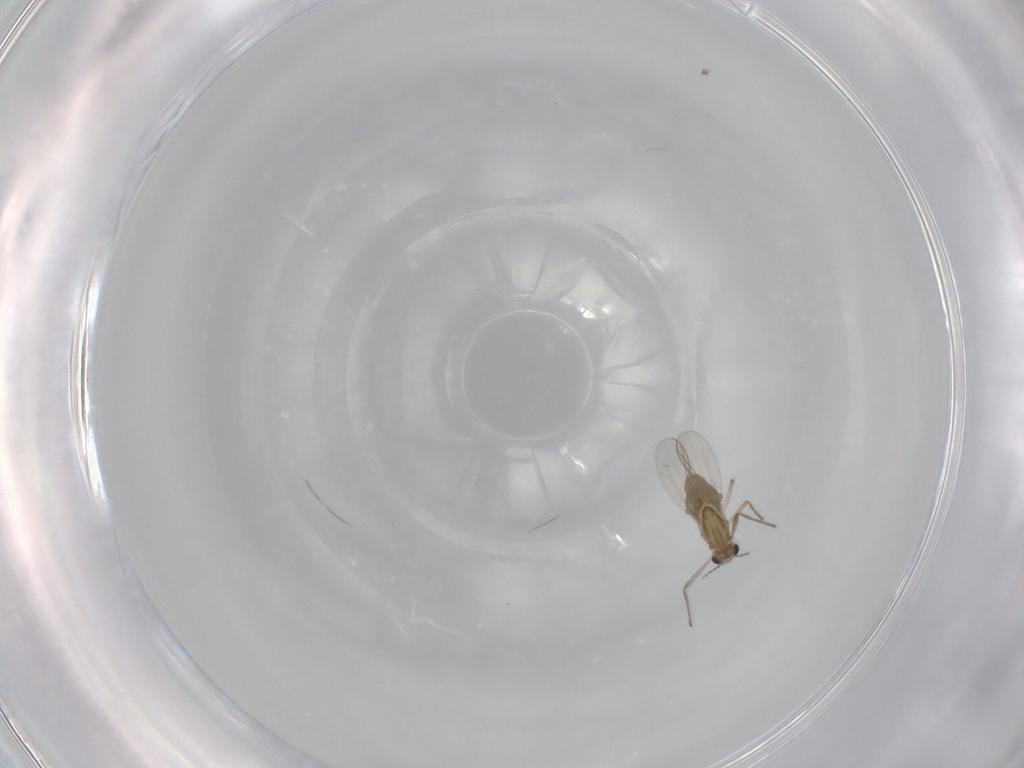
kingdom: Animalia
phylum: Arthropoda
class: Insecta
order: Diptera
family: Chironomidae
